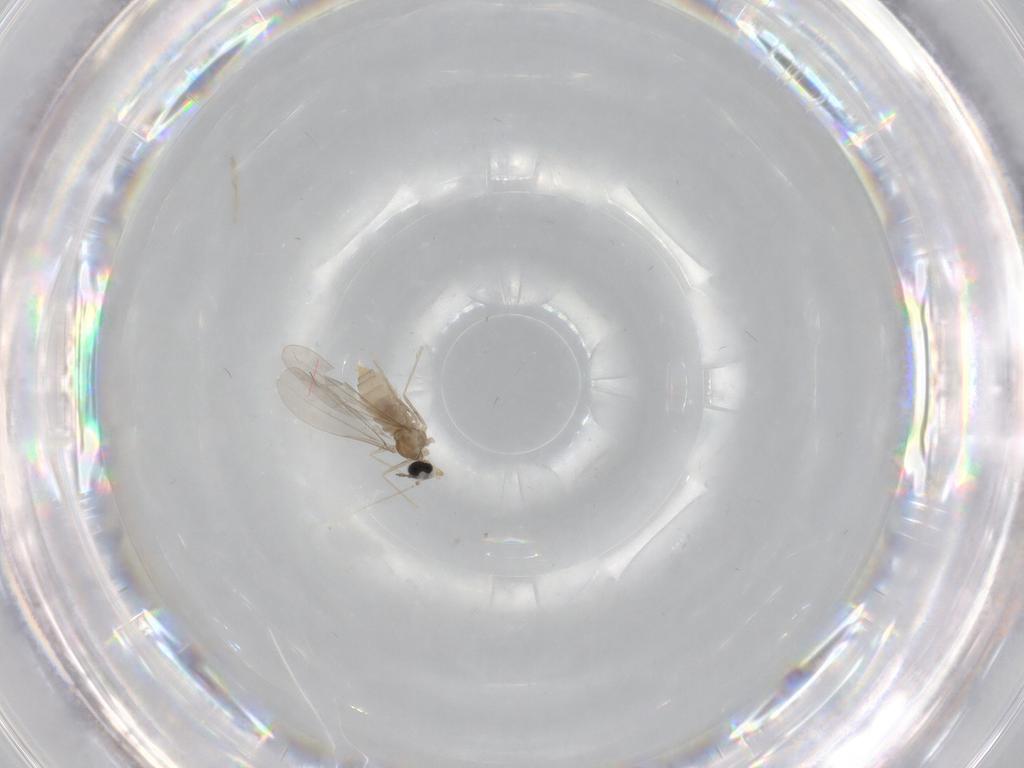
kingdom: Animalia
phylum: Arthropoda
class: Insecta
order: Diptera
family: Cecidomyiidae
